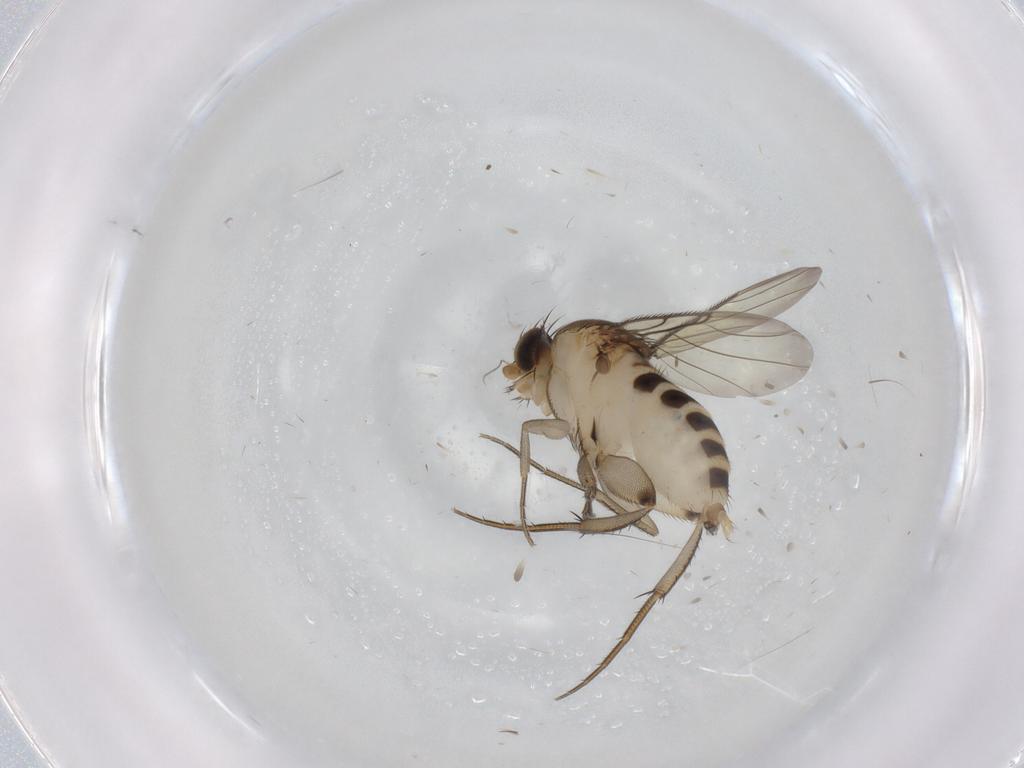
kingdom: Animalia
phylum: Arthropoda
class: Insecta
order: Diptera
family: Phoridae
